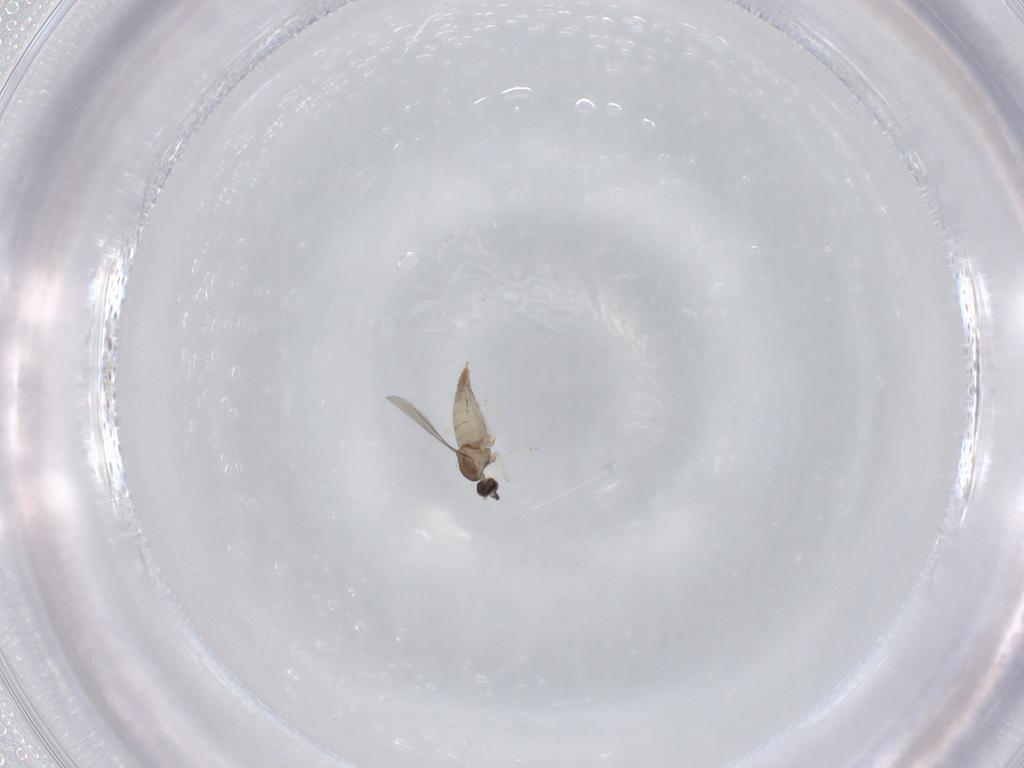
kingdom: Animalia
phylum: Arthropoda
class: Insecta
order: Diptera
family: Cecidomyiidae
